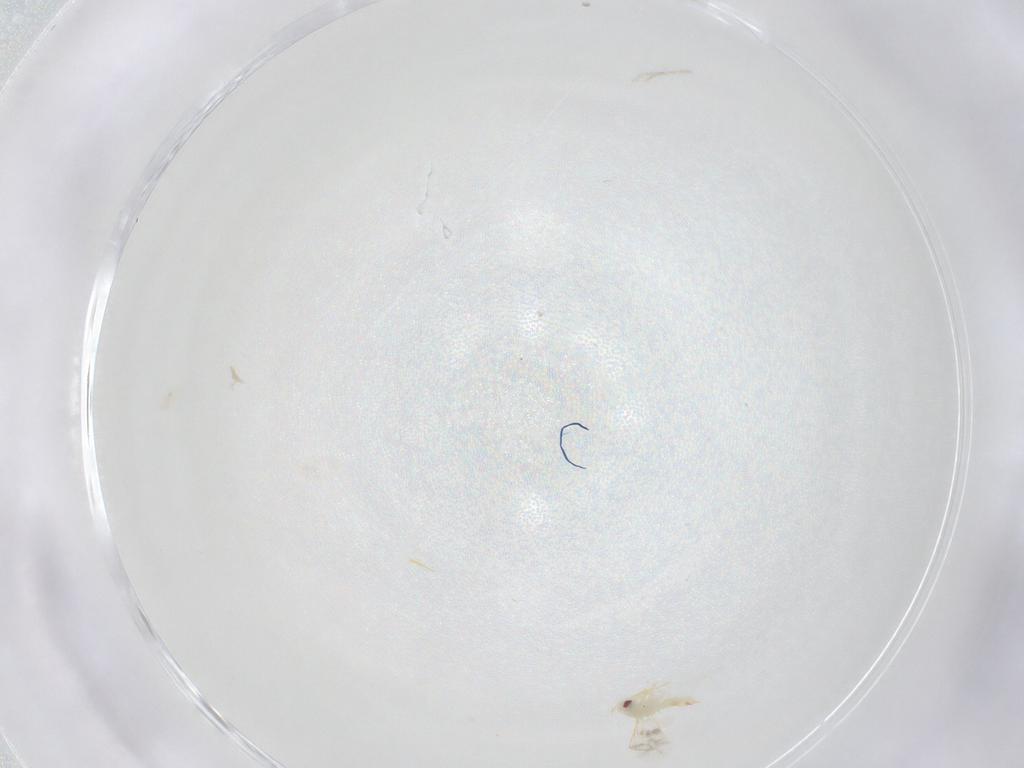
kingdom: Animalia
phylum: Arthropoda
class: Insecta
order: Hemiptera
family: Aleyrodidae
